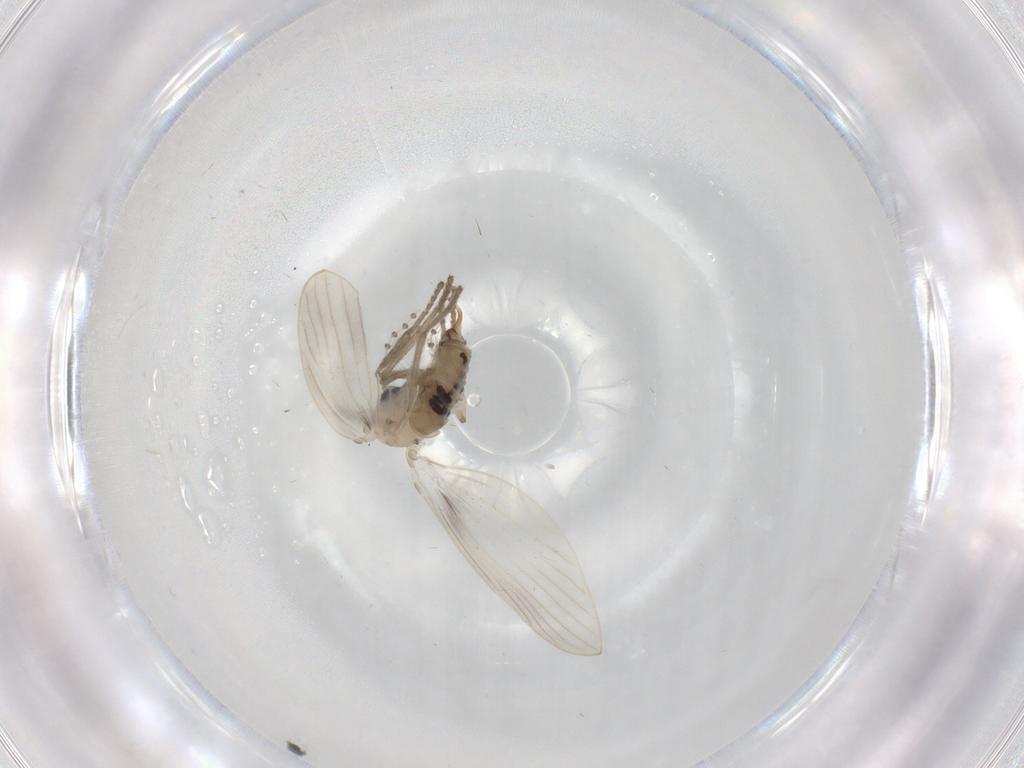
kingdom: Animalia
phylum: Arthropoda
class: Insecta
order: Diptera
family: Psychodidae
